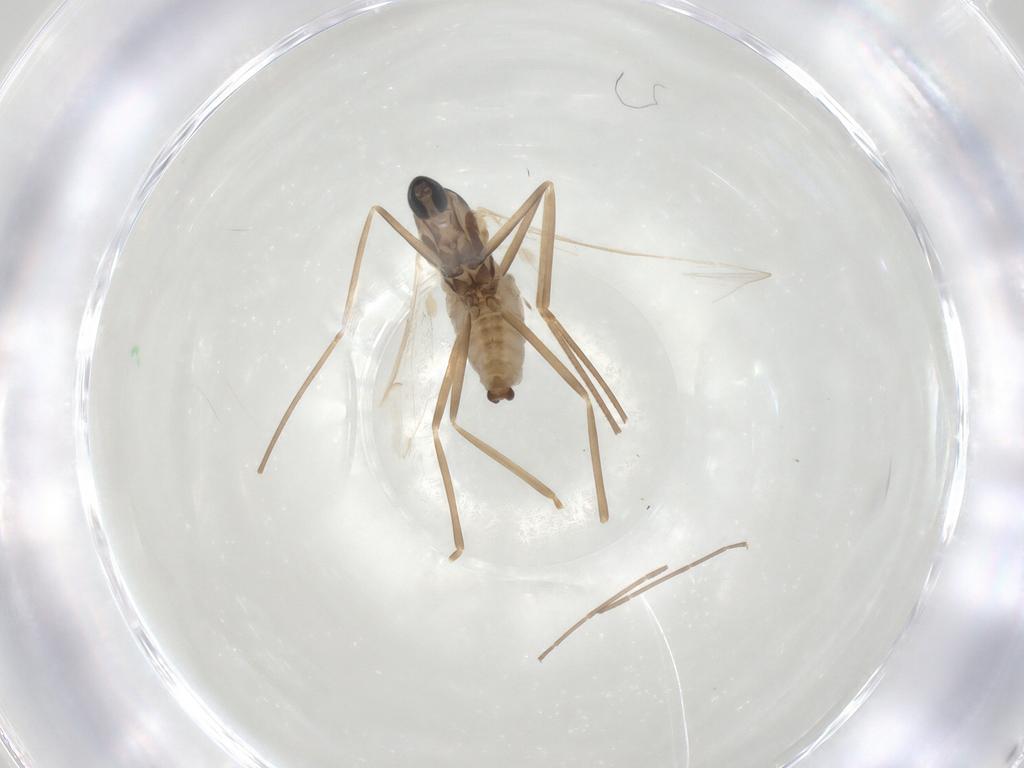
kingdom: Animalia
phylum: Arthropoda
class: Insecta
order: Diptera
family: Cecidomyiidae
